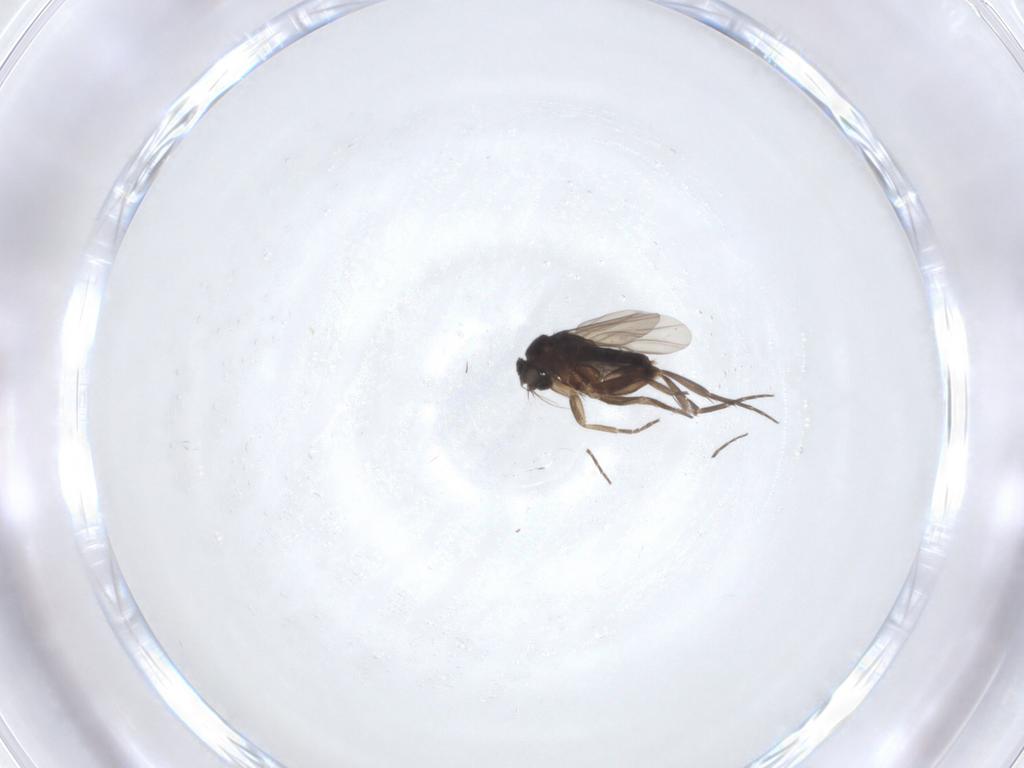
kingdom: Animalia
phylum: Arthropoda
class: Insecta
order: Diptera
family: Phoridae
